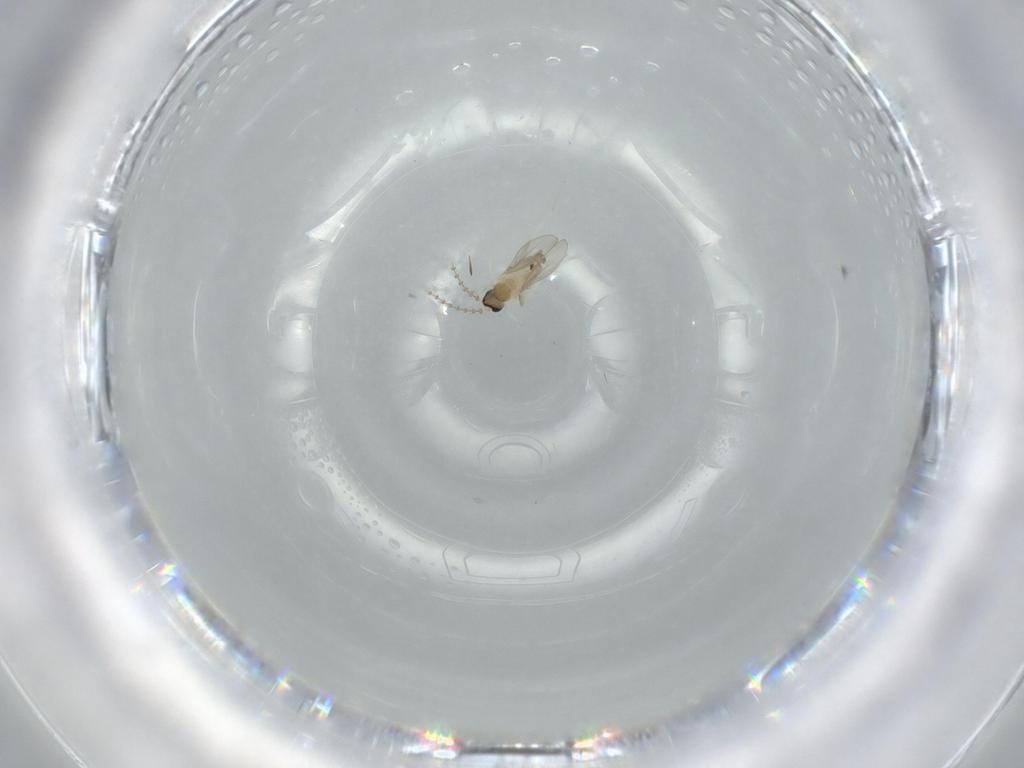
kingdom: Animalia
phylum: Arthropoda
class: Insecta
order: Diptera
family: Cecidomyiidae
